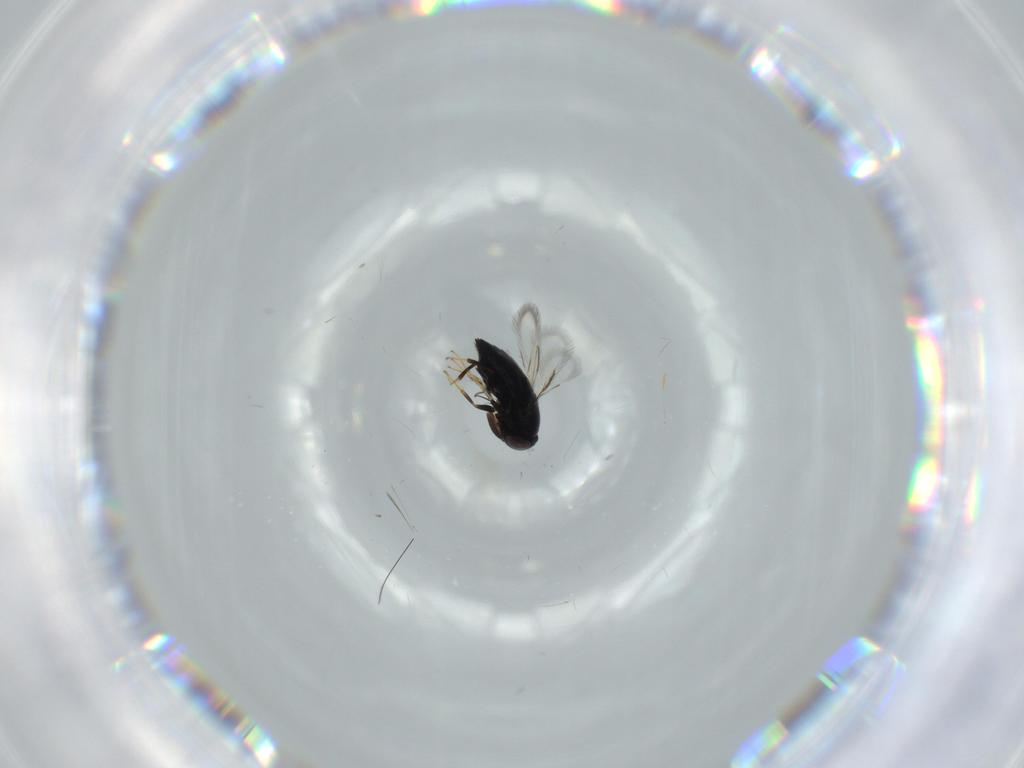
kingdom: Animalia
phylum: Arthropoda
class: Insecta
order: Hymenoptera
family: Signiphoridae
